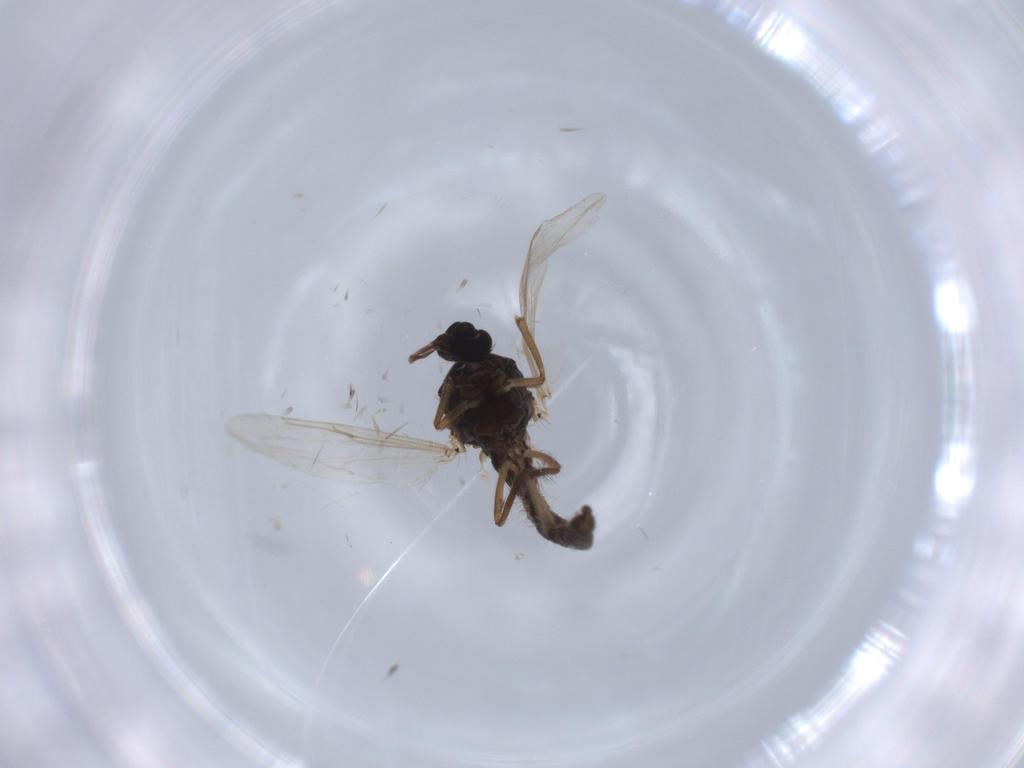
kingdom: Animalia
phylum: Arthropoda
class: Insecta
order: Diptera
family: Ceratopogonidae
